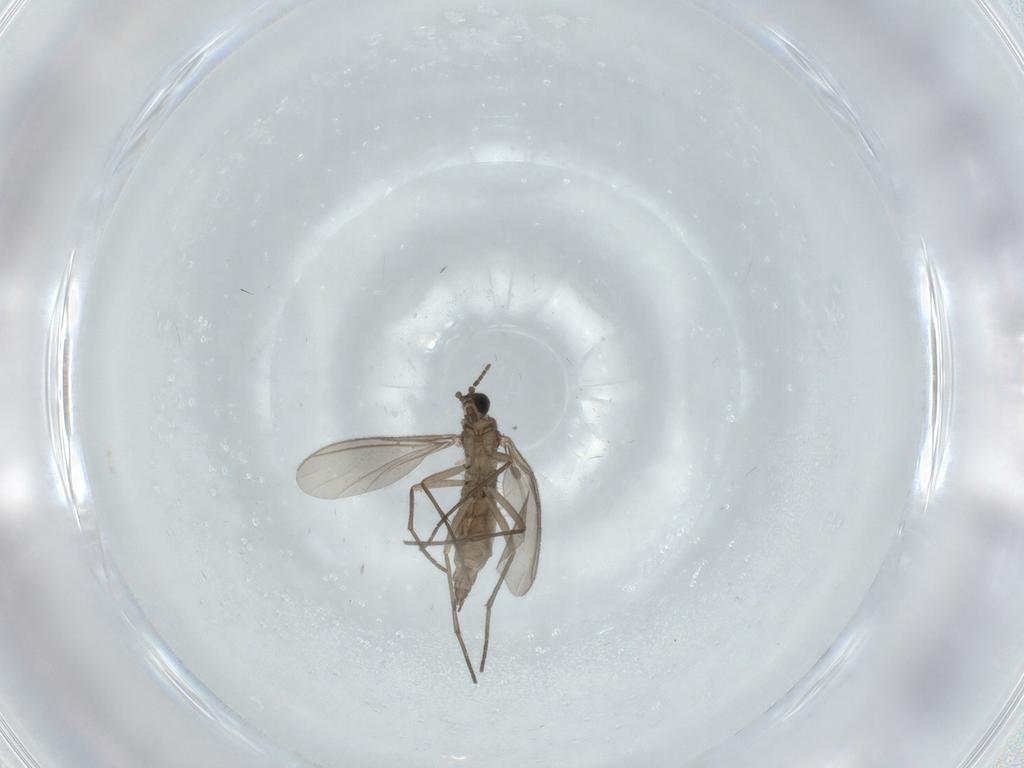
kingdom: Animalia
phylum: Arthropoda
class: Insecta
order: Diptera
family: Sciaridae
